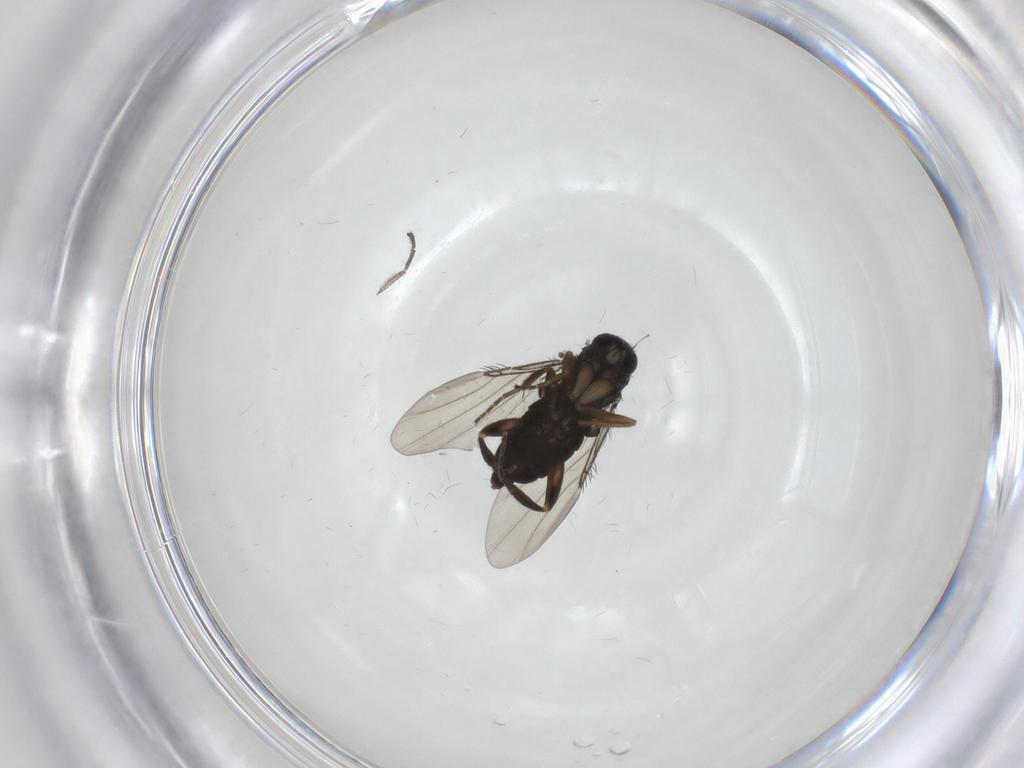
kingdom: Animalia
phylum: Arthropoda
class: Insecta
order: Diptera
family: Phoridae
